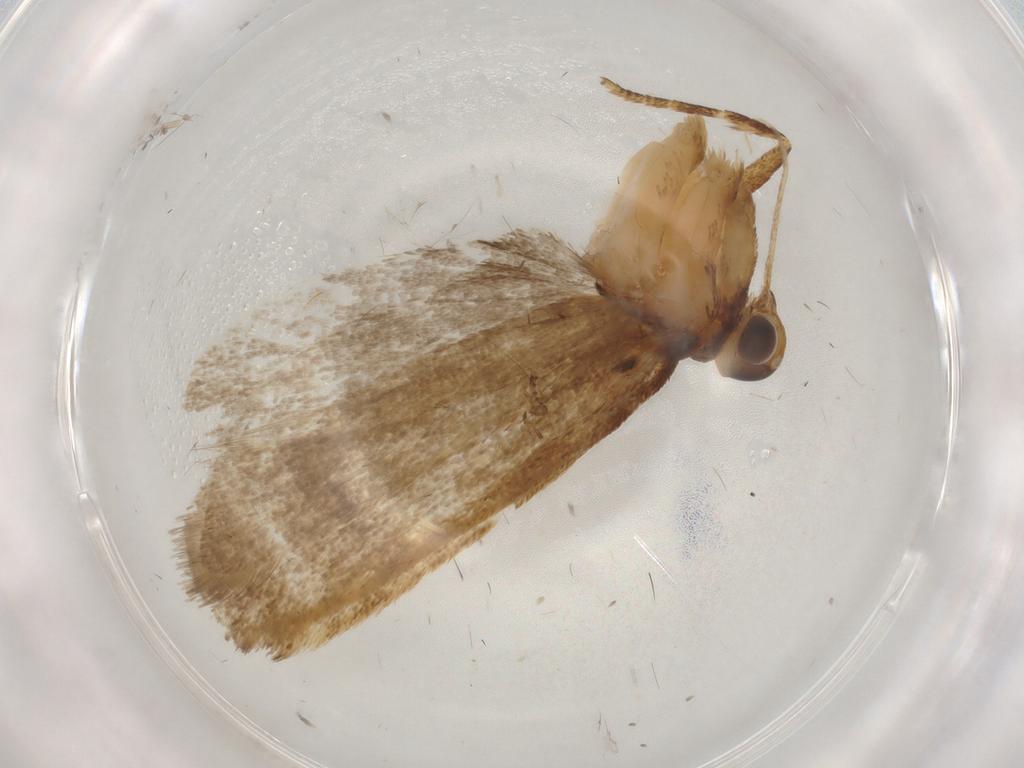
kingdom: Animalia
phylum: Arthropoda
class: Insecta
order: Lepidoptera
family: Lecithoceridae
